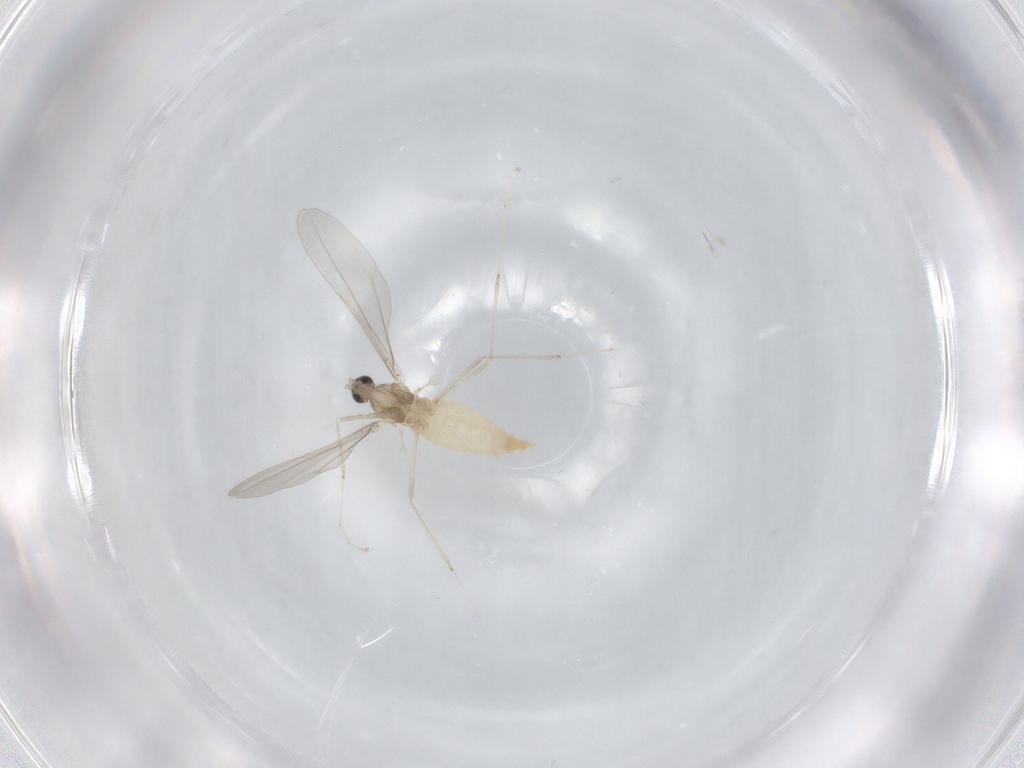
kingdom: Animalia
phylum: Arthropoda
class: Insecta
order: Diptera
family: Cecidomyiidae
